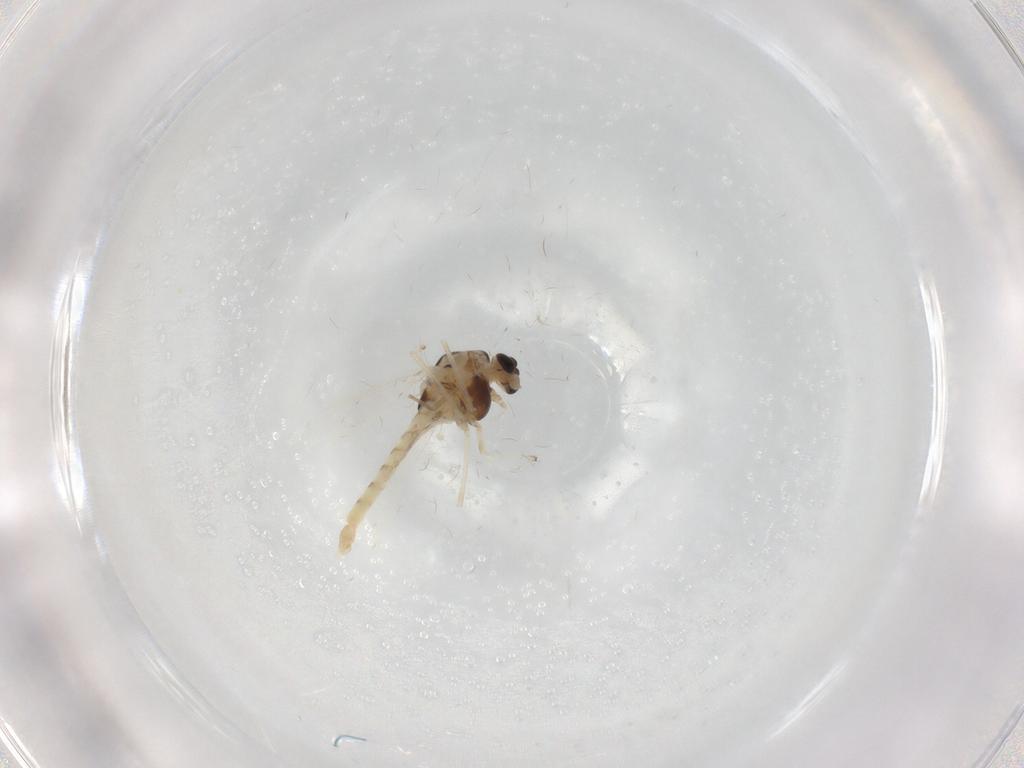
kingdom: Animalia
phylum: Arthropoda
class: Insecta
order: Diptera
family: Chironomidae
